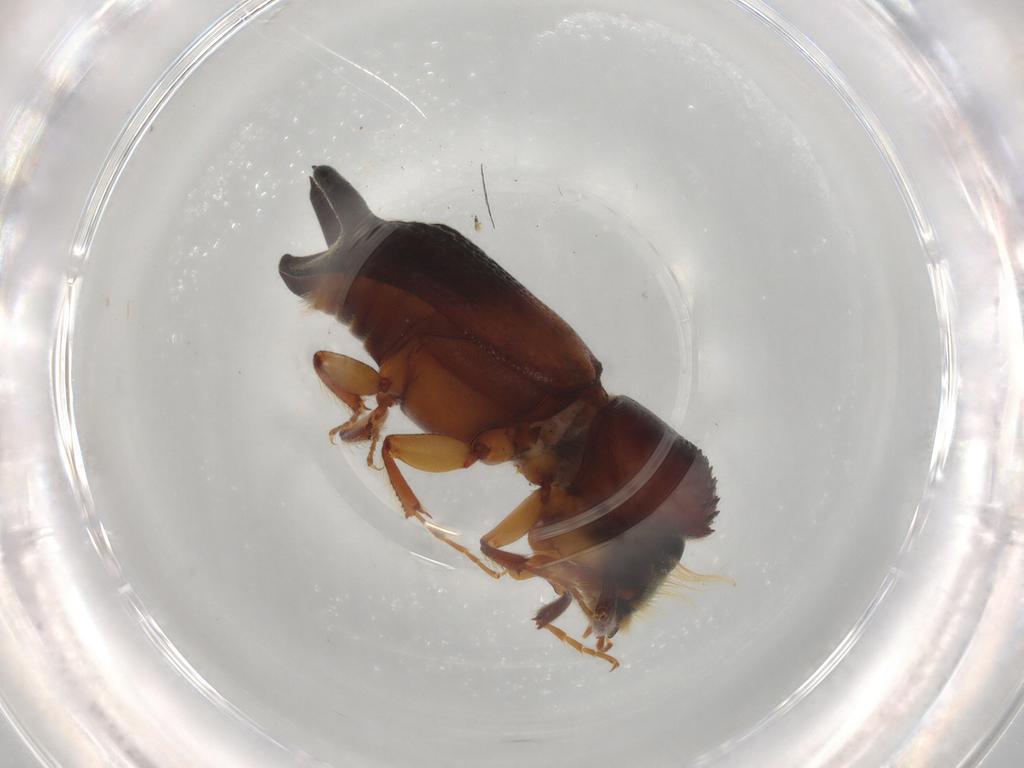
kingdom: Animalia
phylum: Arthropoda
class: Insecta
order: Coleoptera
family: Bostrichidae
